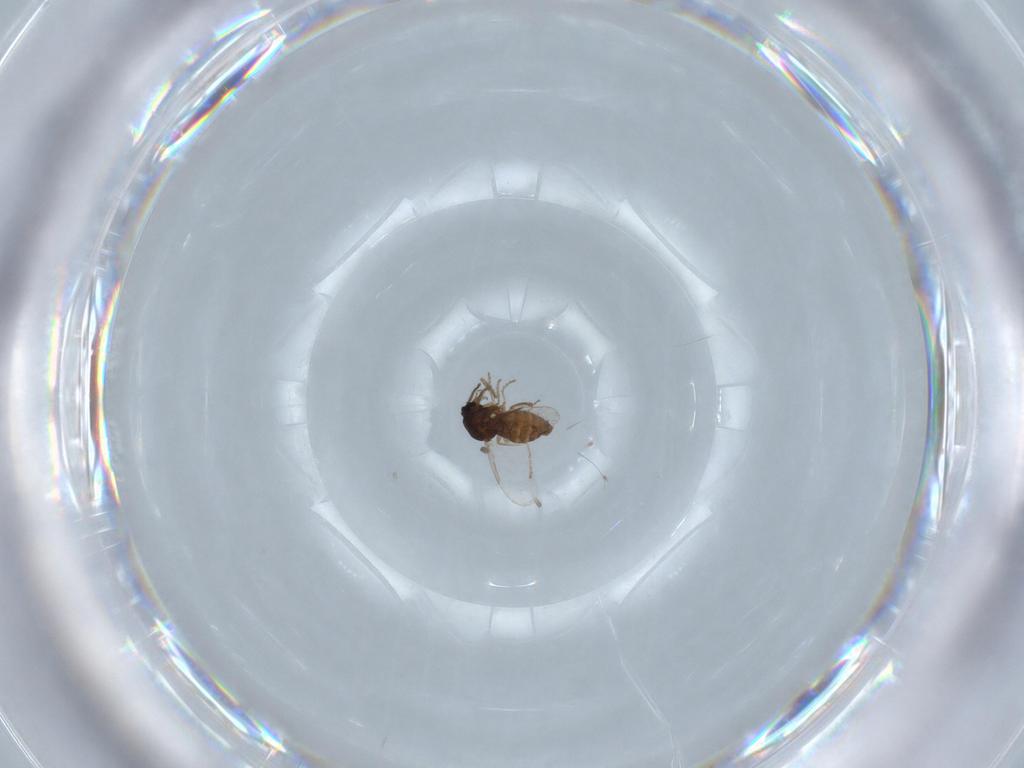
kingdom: Animalia
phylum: Arthropoda
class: Insecta
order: Diptera
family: Ceratopogonidae
